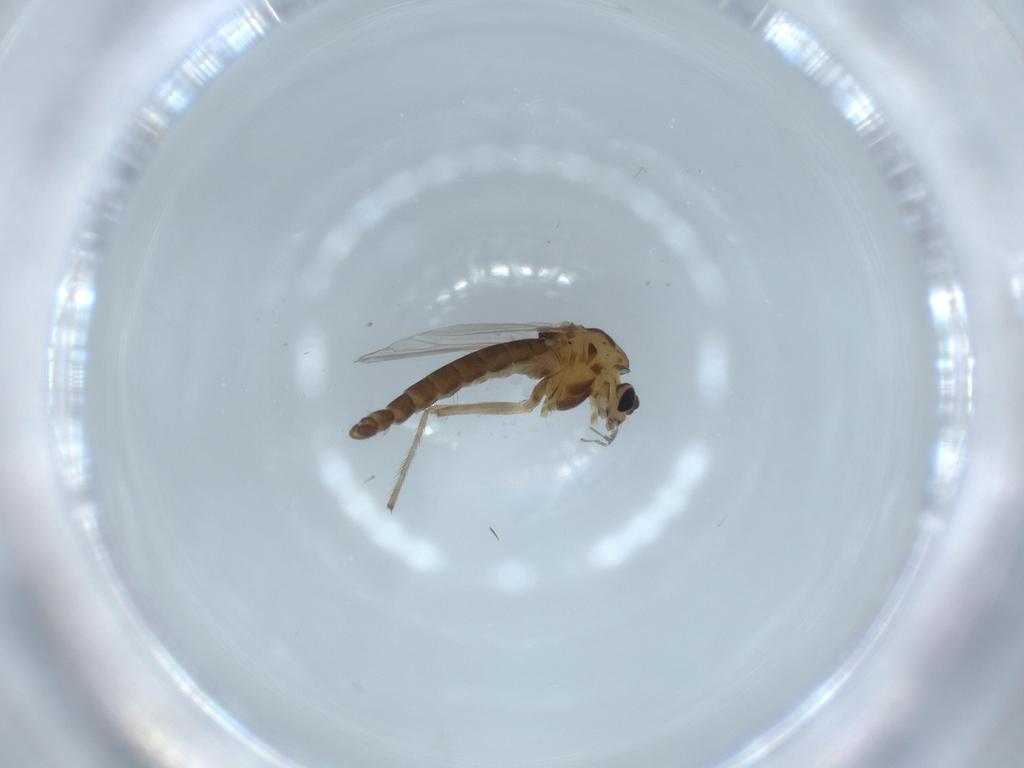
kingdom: Animalia
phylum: Arthropoda
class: Insecta
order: Diptera
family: Chironomidae
